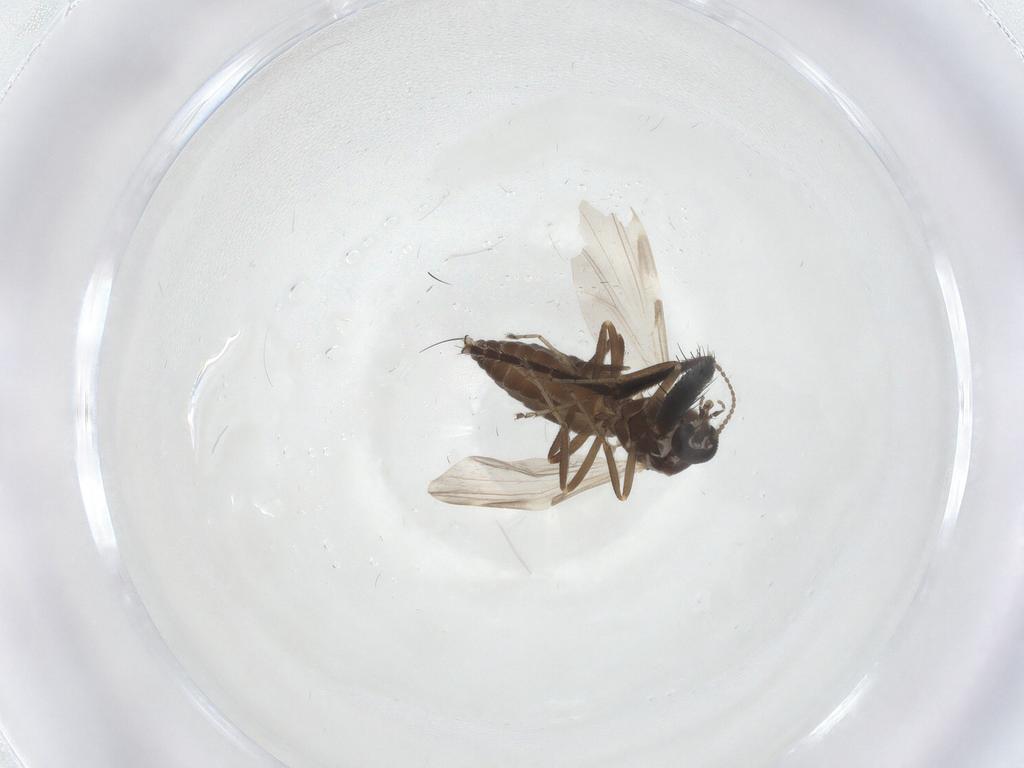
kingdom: Animalia
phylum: Arthropoda
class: Insecta
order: Diptera
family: Ceratopogonidae
